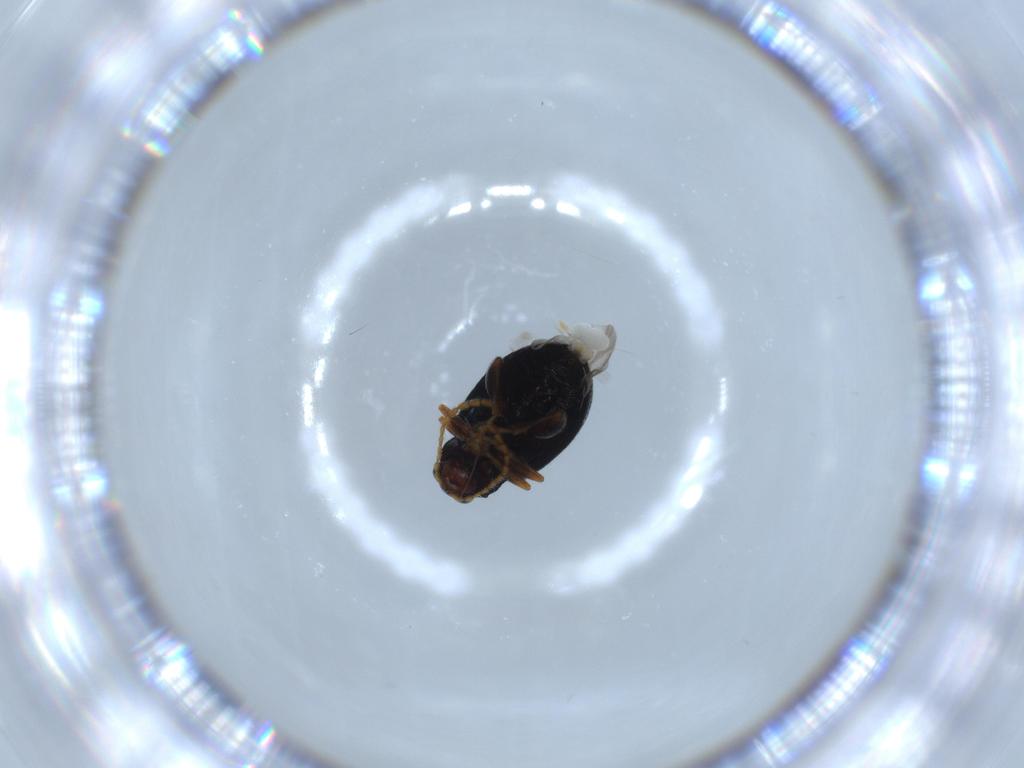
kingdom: Animalia
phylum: Arthropoda
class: Insecta
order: Coleoptera
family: Chrysomelidae
